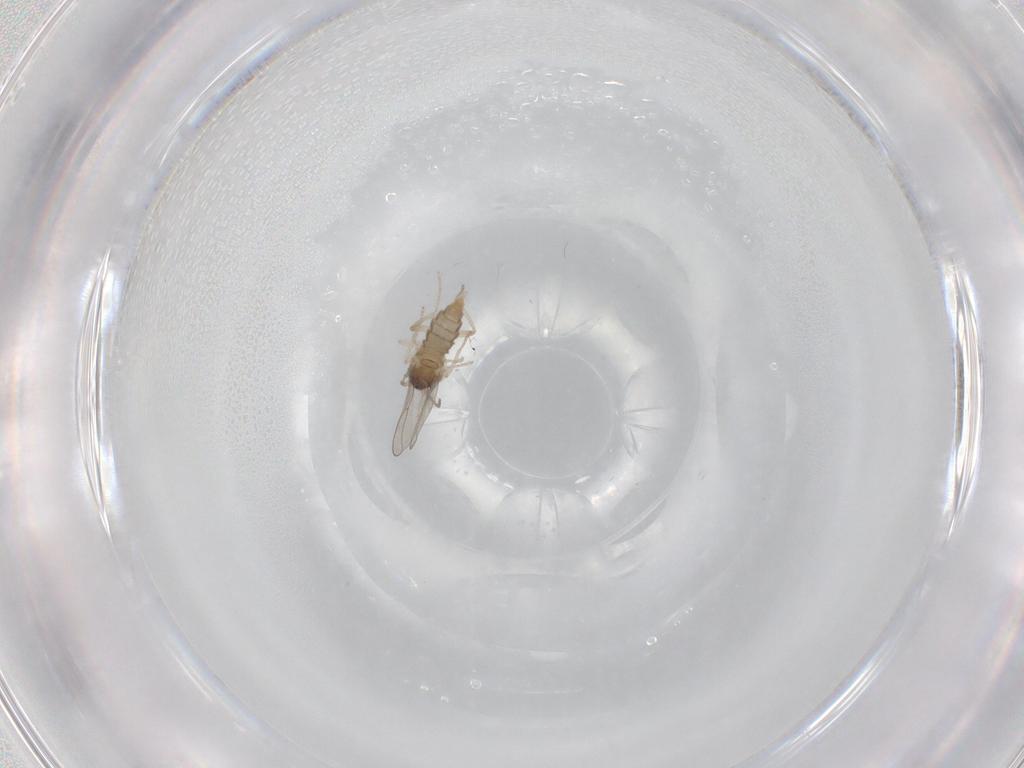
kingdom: Animalia
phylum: Arthropoda
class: Insecta
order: Diptera
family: Cecidomyiidae
